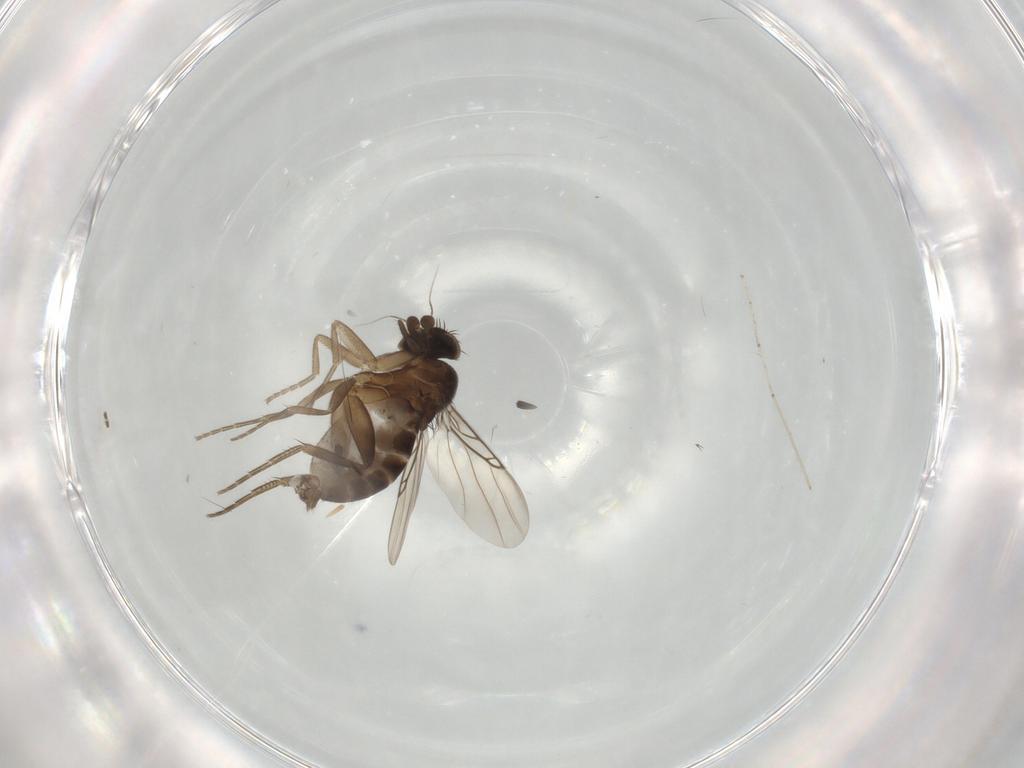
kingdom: Animalia
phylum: Arthropoda
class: Insecta
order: Diptera
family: Phoridae
